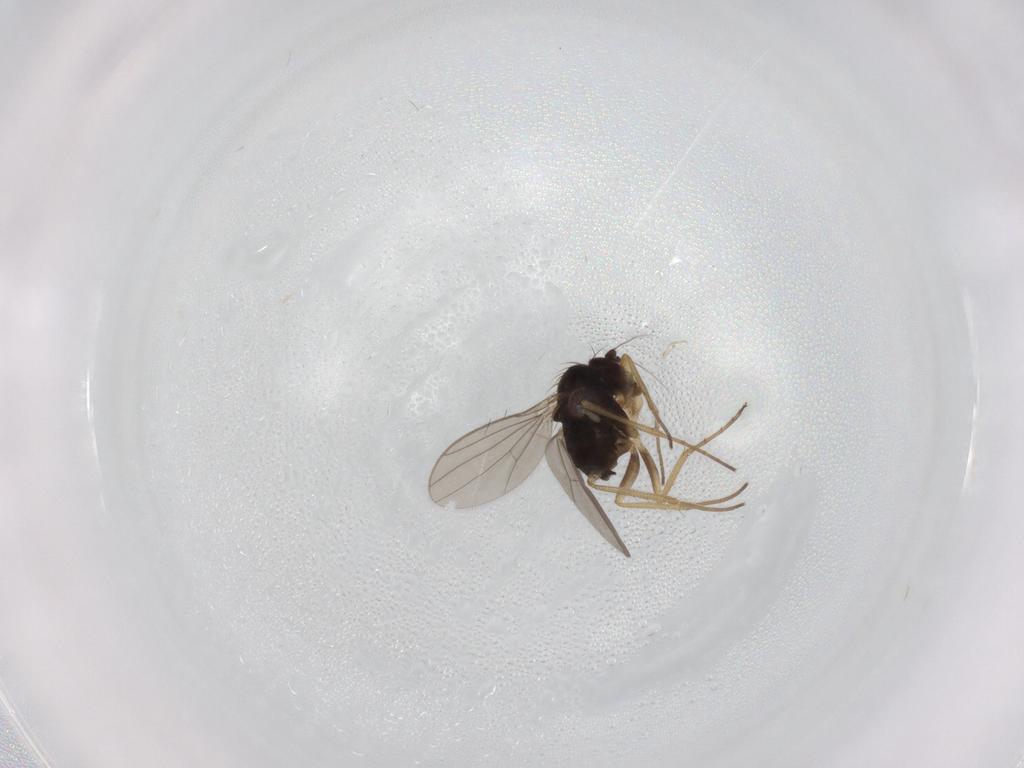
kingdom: Animalia
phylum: Arthropoda
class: Insecta
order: Diptera
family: Dolichopodidae
